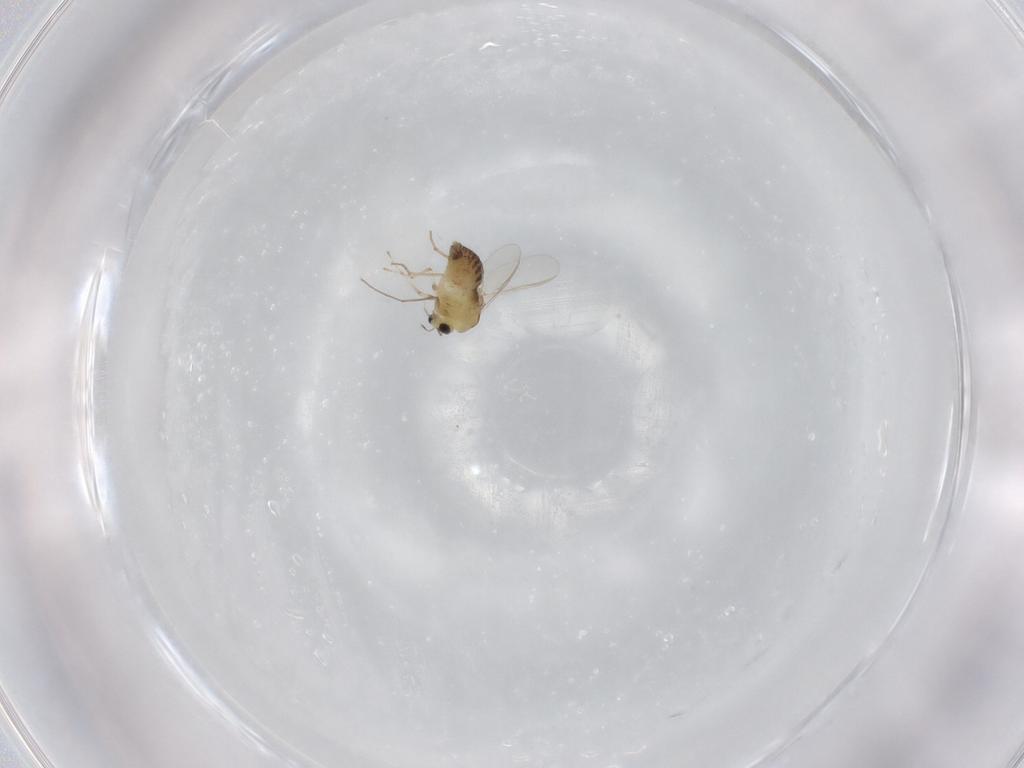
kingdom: Animalia
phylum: Arthropoda
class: Insecta
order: Diptera
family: Chironomidae
